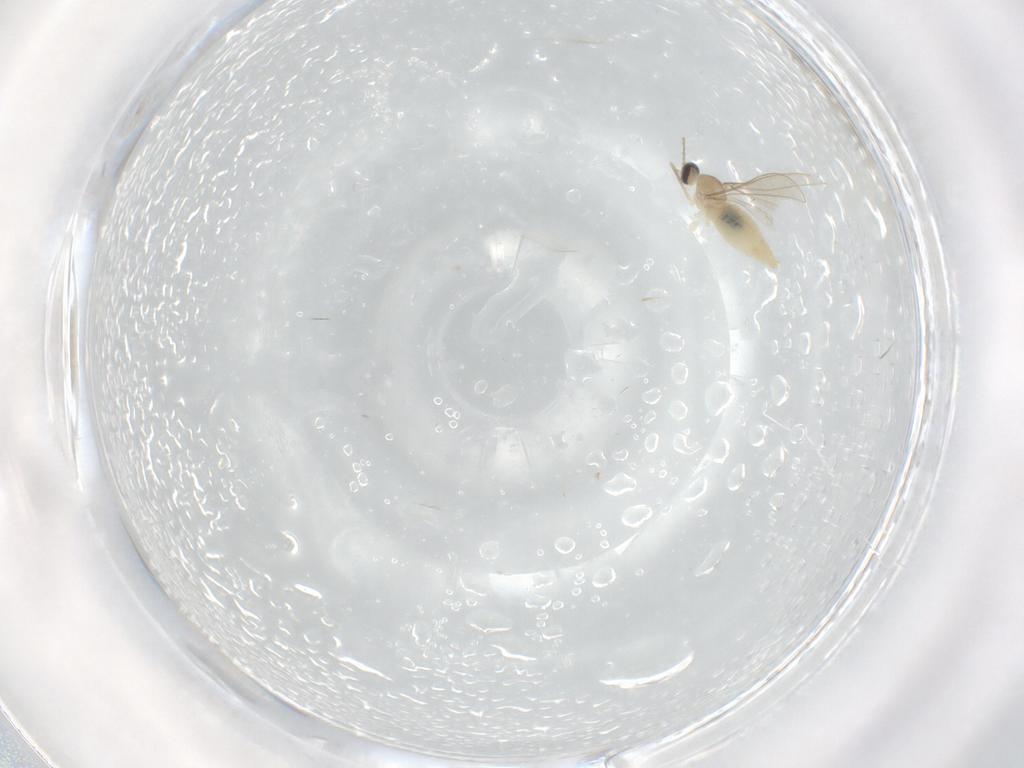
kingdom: Animalia
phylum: Arthropoda
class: Insecta
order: Diptera
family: Cecidomyiidae
